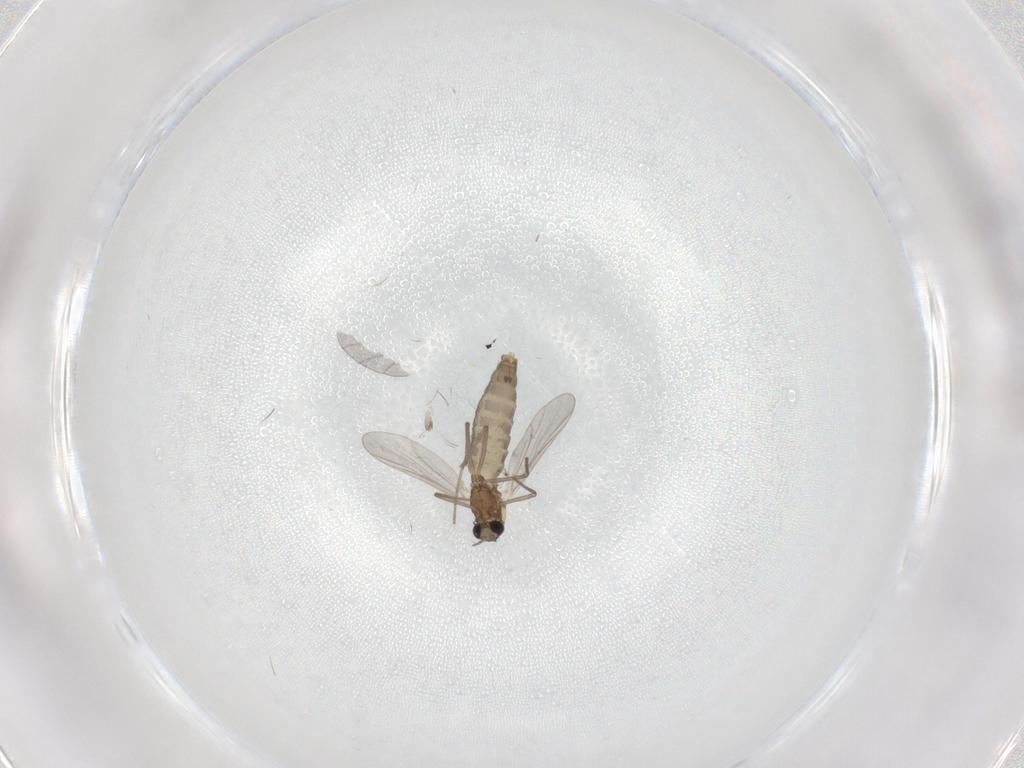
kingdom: Animalia
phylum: Arthropoda
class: Insecta
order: Diptera
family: Chironomidae
